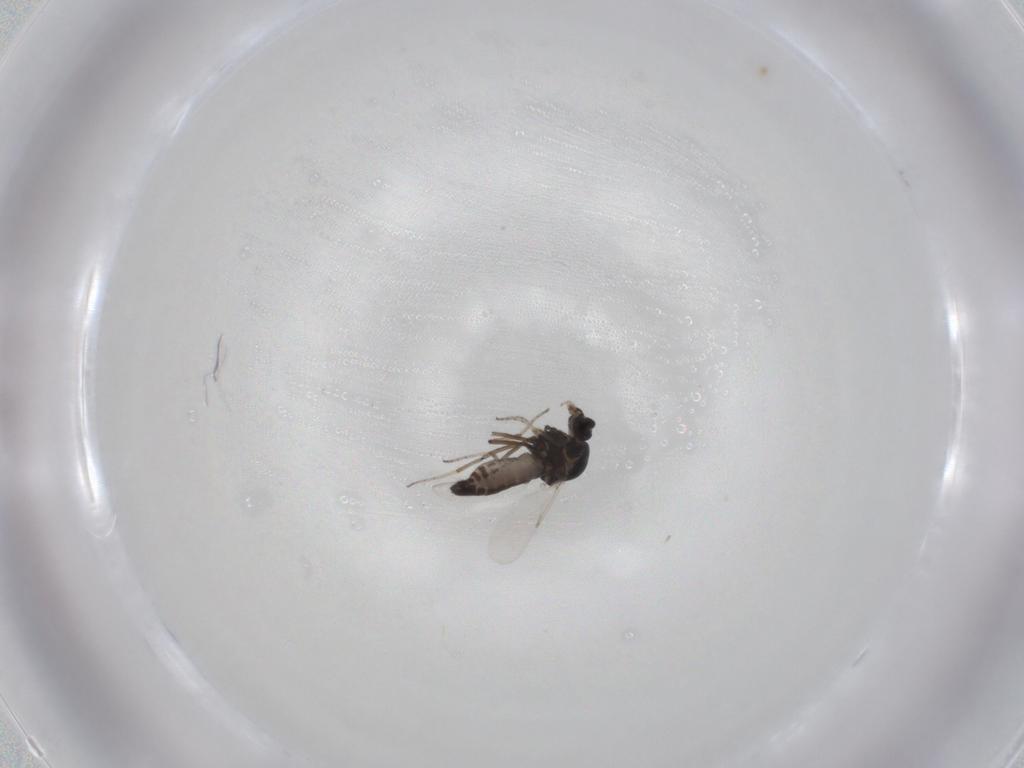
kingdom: Animalia
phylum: Arthropoda
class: Insecta
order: Diptera
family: Ceratopogonidae
